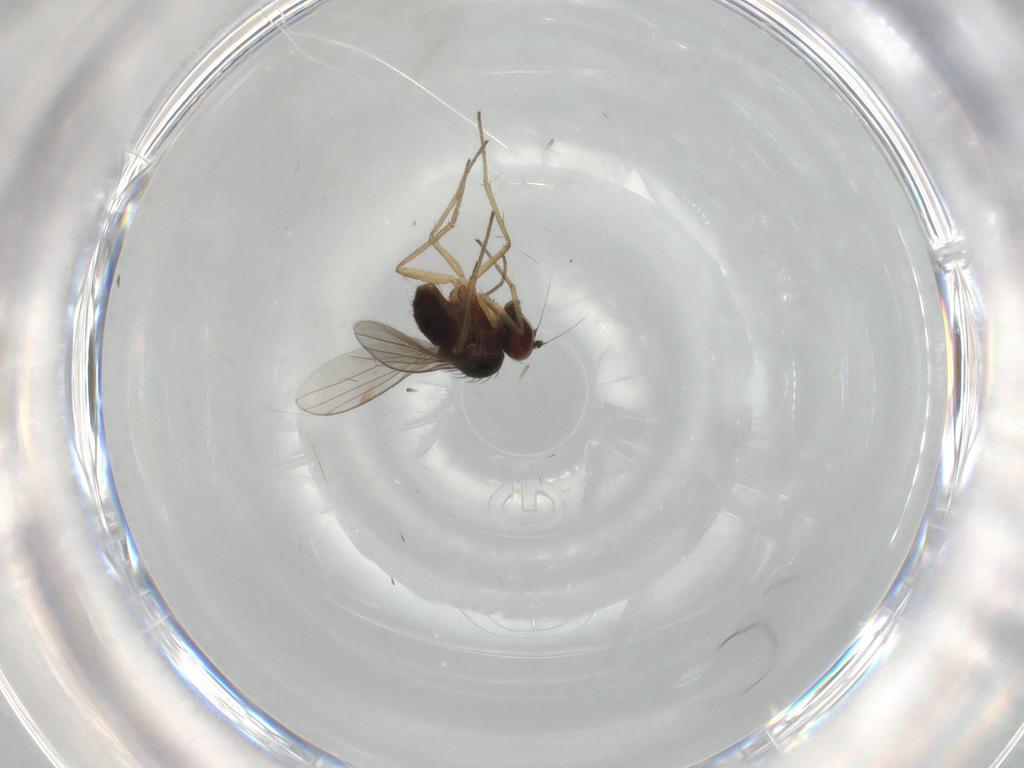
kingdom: Animalia
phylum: Arthropoda
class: Insecta
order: Diptera
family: Dolichopodidae
